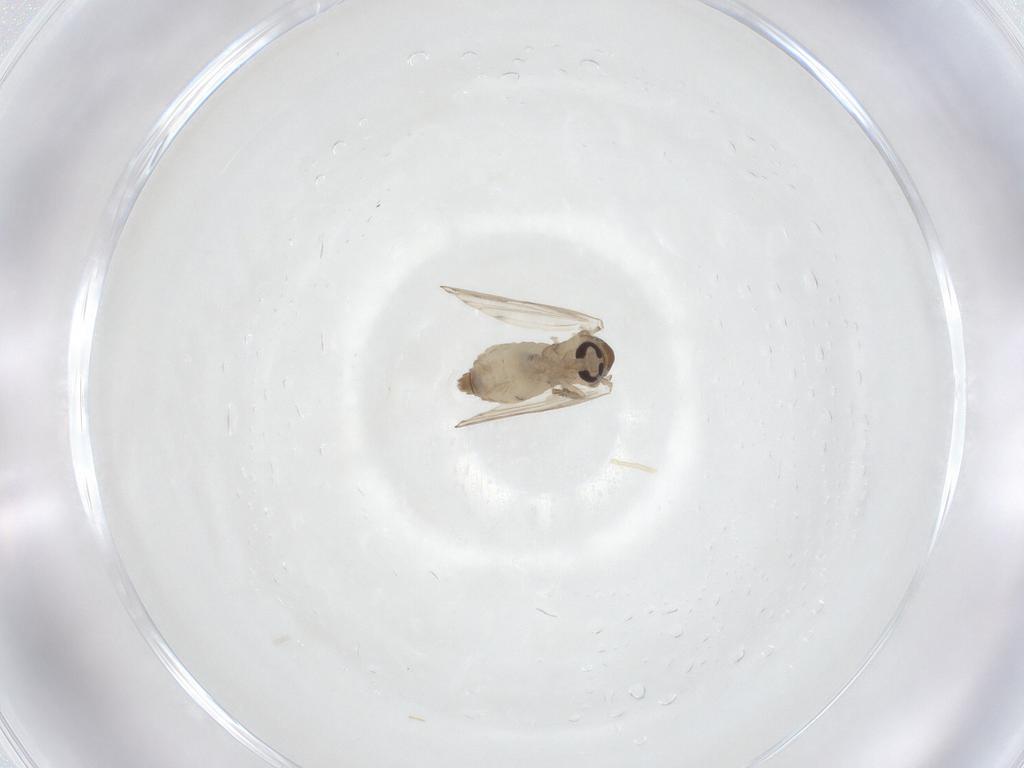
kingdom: Animalia
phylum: Arthropoda
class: Insecta
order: Diptera
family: Psychodidae
